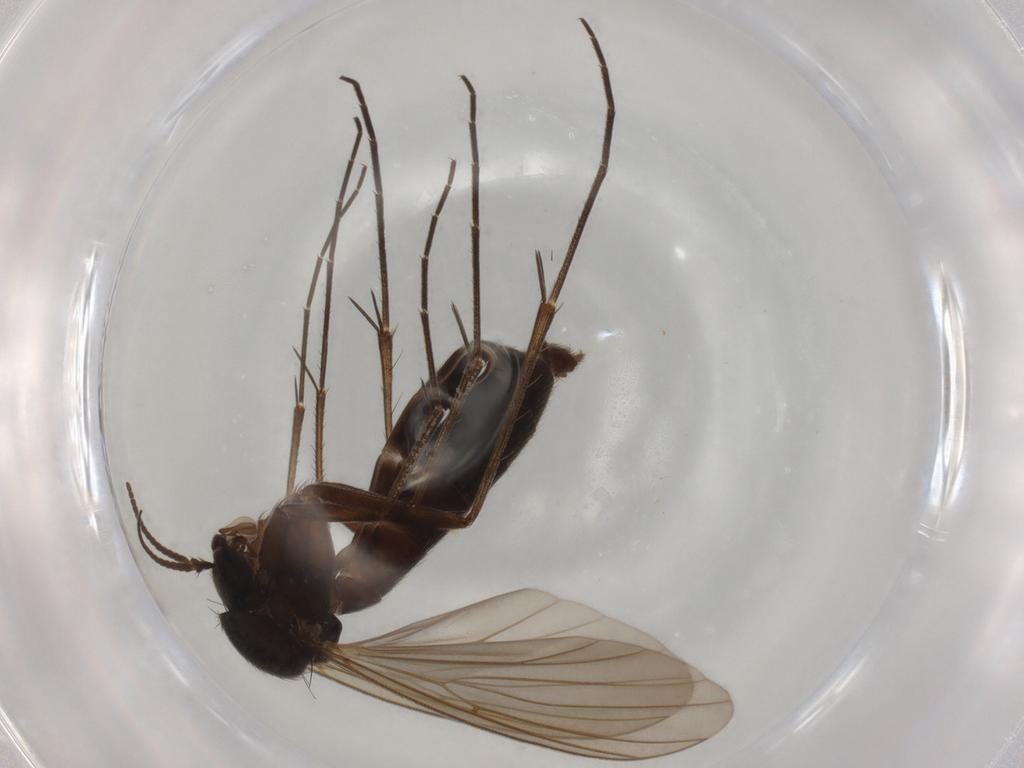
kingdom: Animalia
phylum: Arthropoda
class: Insecta
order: Diptera
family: Mycetophilidae
